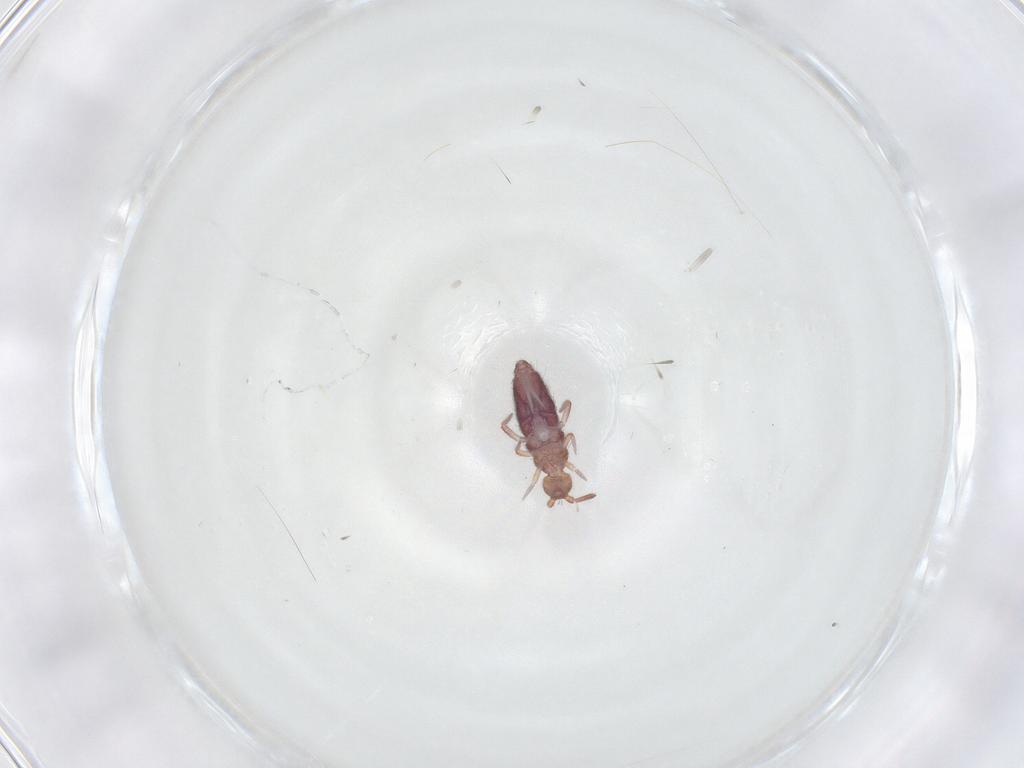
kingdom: Animalia
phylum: Arthropoda
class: Collembola
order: Entomobryomorpha
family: Entomobryidae
